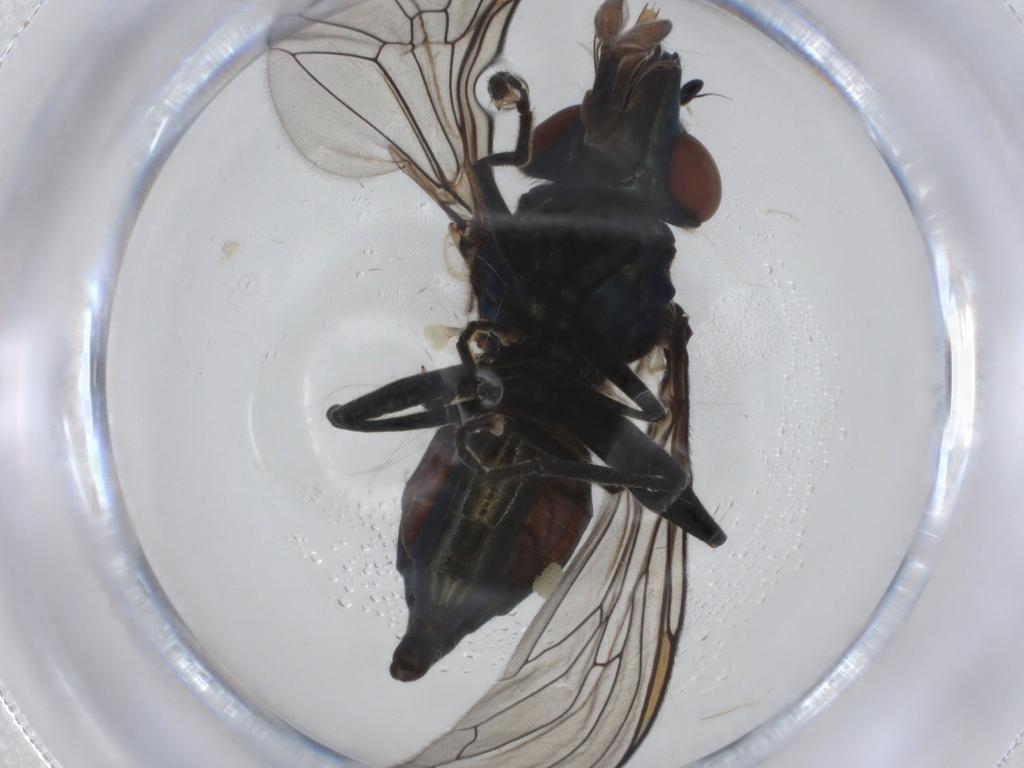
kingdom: Animalia
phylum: Arthropoda
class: Insecta
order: Diptera
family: Syrphidae
